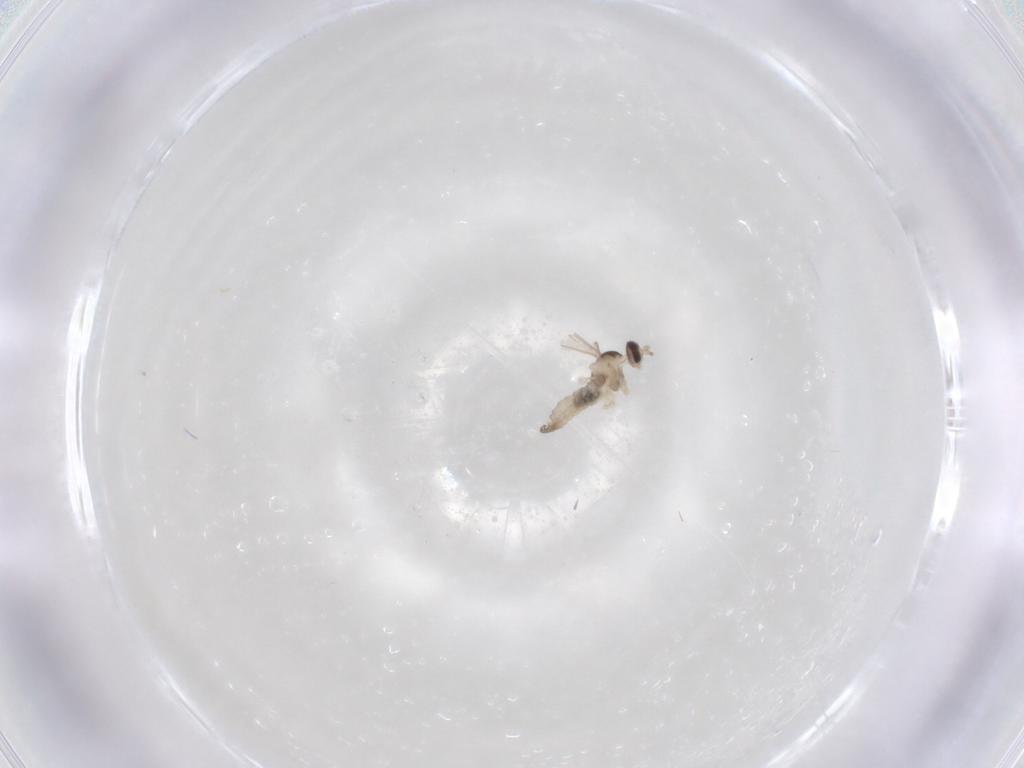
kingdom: Animalia
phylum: Arthropoda
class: Insecta
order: Diptera
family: Cecidomyiidae
